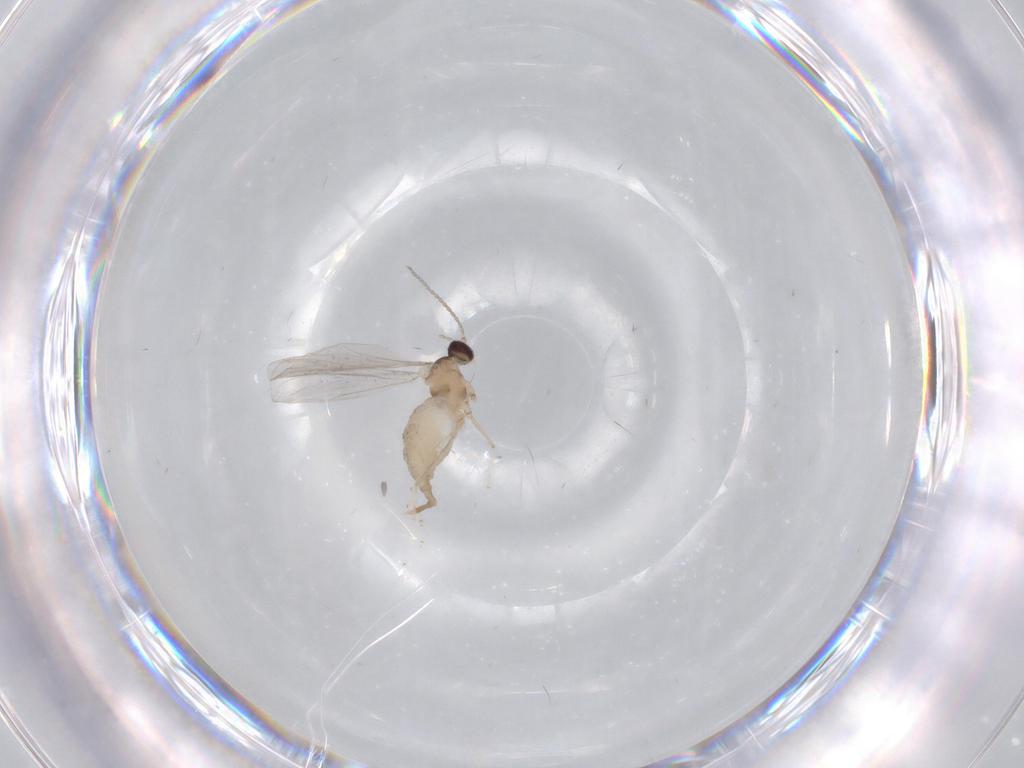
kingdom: Animalia
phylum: Arthropoda
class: Insecta
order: Diptera
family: Cecidomyiidae
